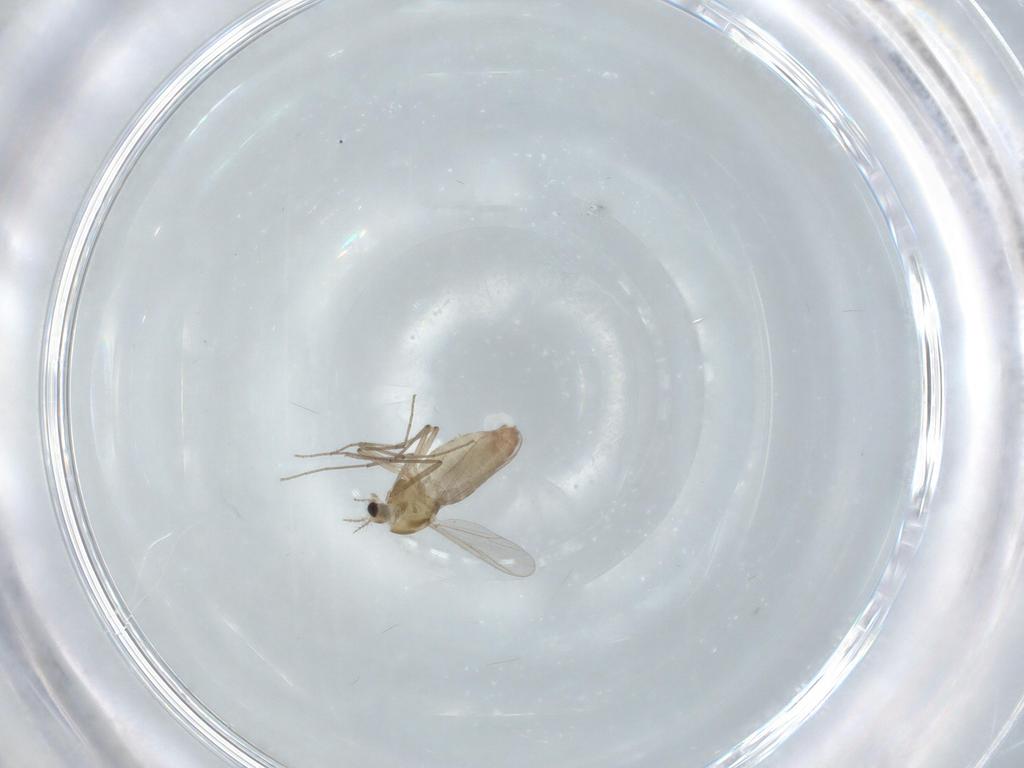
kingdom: Animalia
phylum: Arthropoda
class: Insecta
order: Diptera
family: Chironomidae
